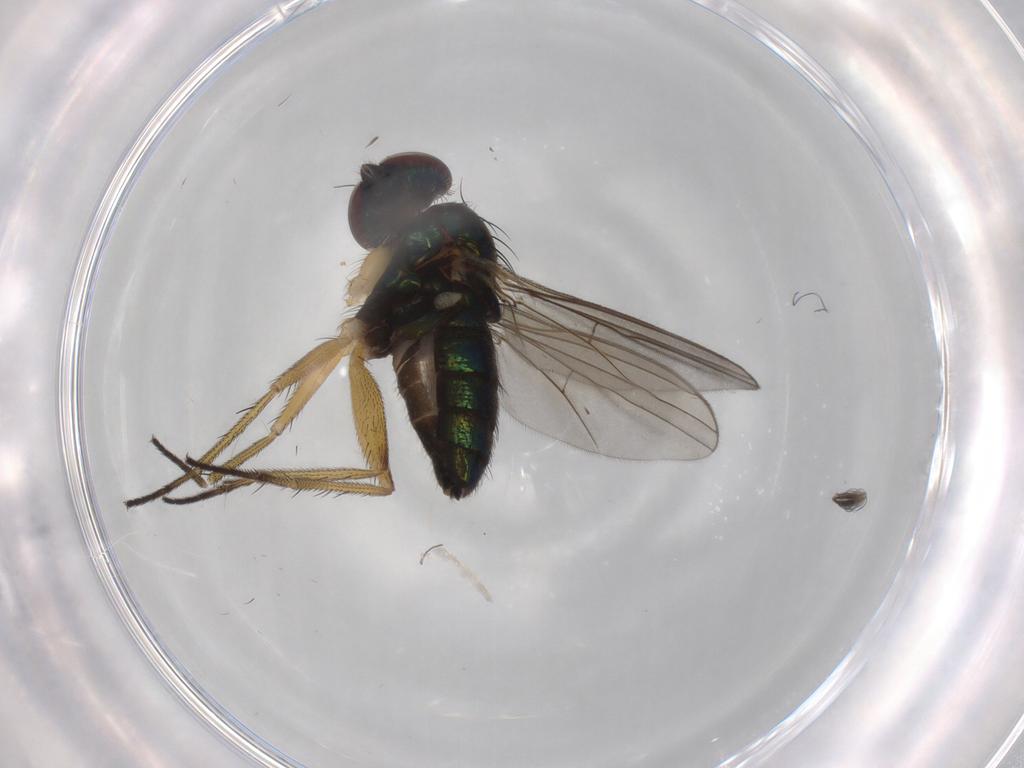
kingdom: Animalia
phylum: Arthropoda
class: Insecta
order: Diptera
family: Ceratopogonidae
